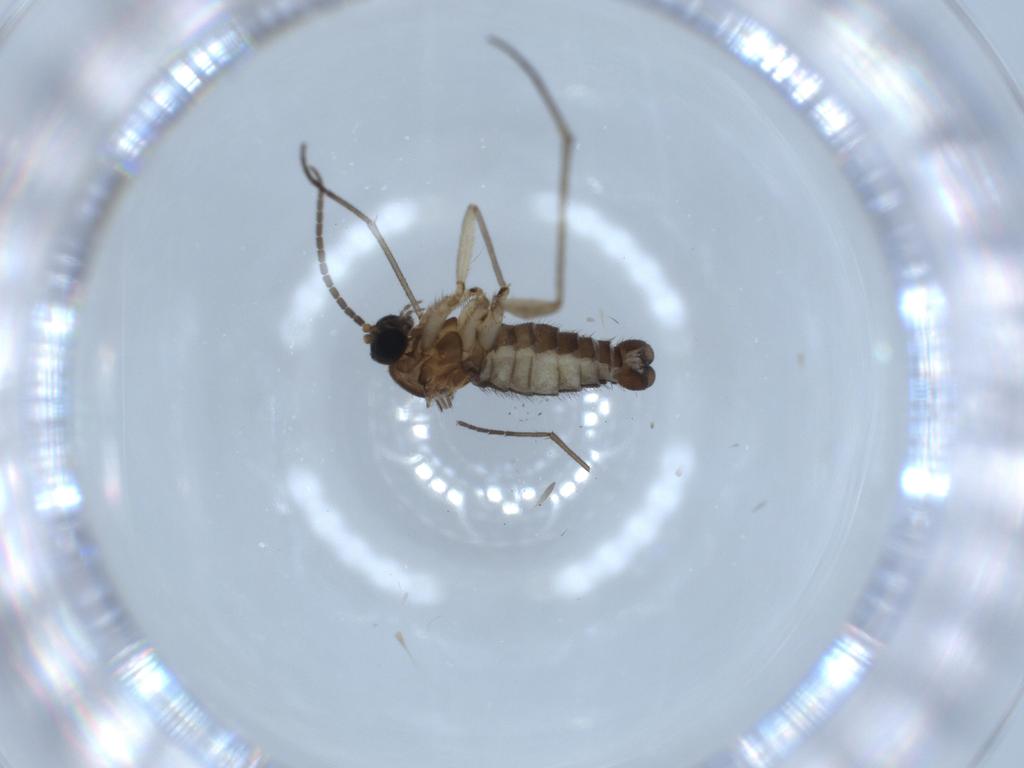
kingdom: Animalia
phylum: Arthropoda
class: Insecta
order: Diptera
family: Sciaridae
